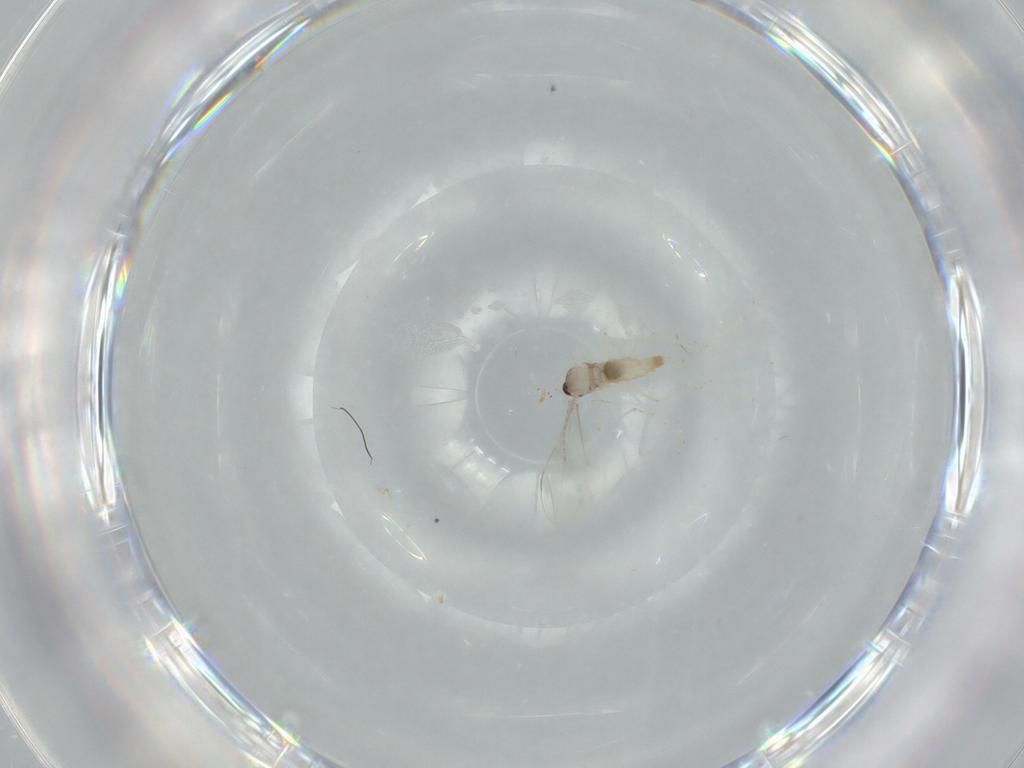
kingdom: Animalia
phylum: Arthropoda
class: Insecta
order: Diptera
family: Cecidomyiidae
